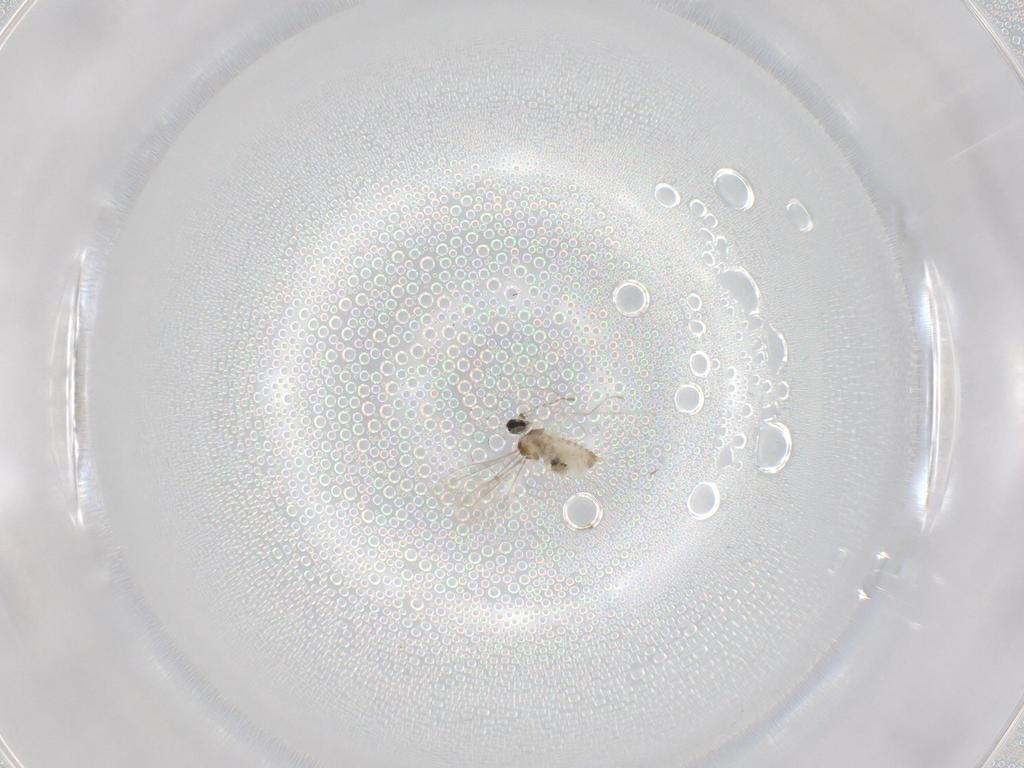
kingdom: Animalia
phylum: Arthropoda
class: Insecta
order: Diptera
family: Cecidomyiidae
